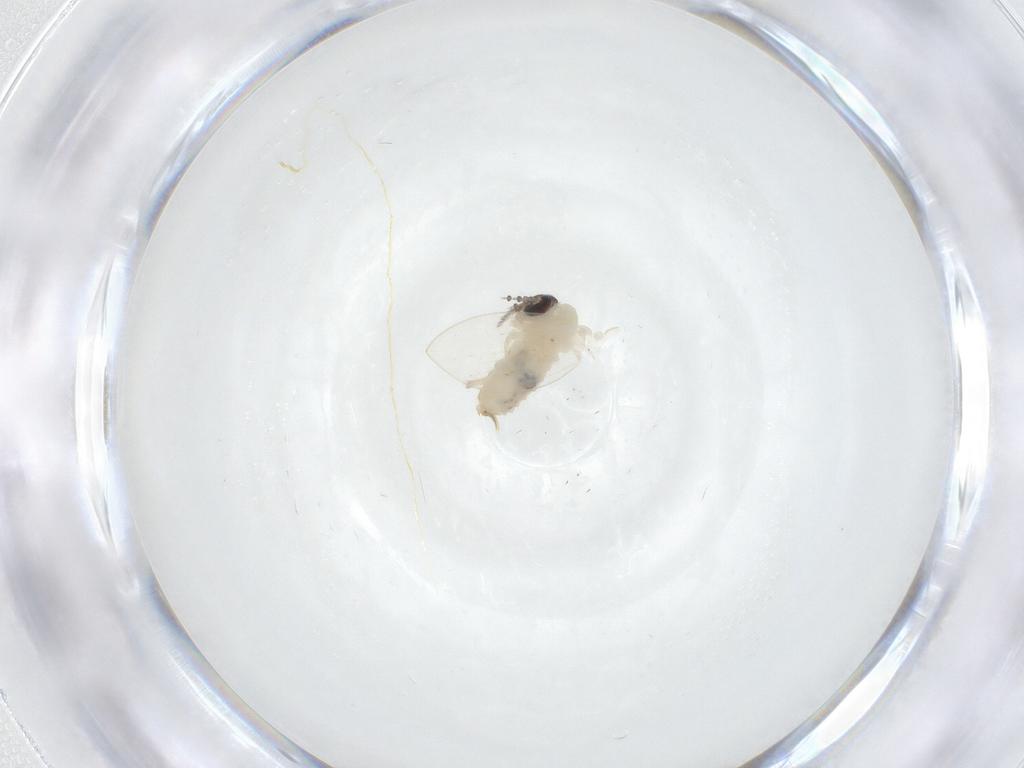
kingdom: Animalia
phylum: Arthropoda
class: Insecta
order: Diptera
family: Psychodidae
